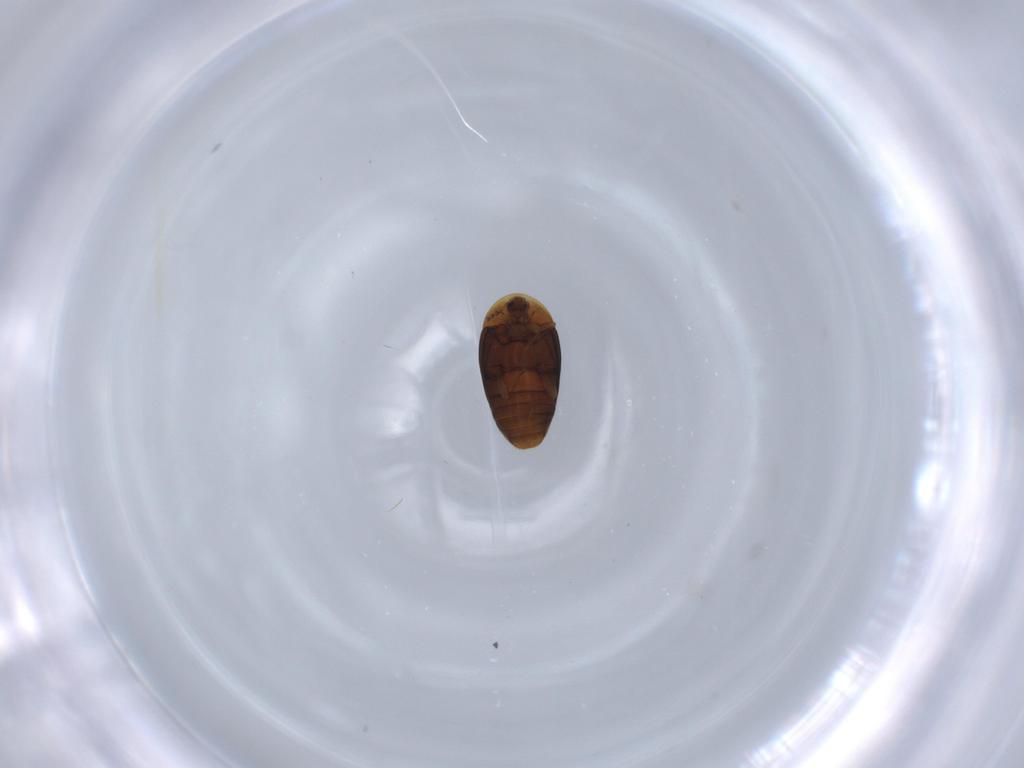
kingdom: Animalia
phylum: Arthropoda
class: Insecta
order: Coleoptera
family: Corylophidae
